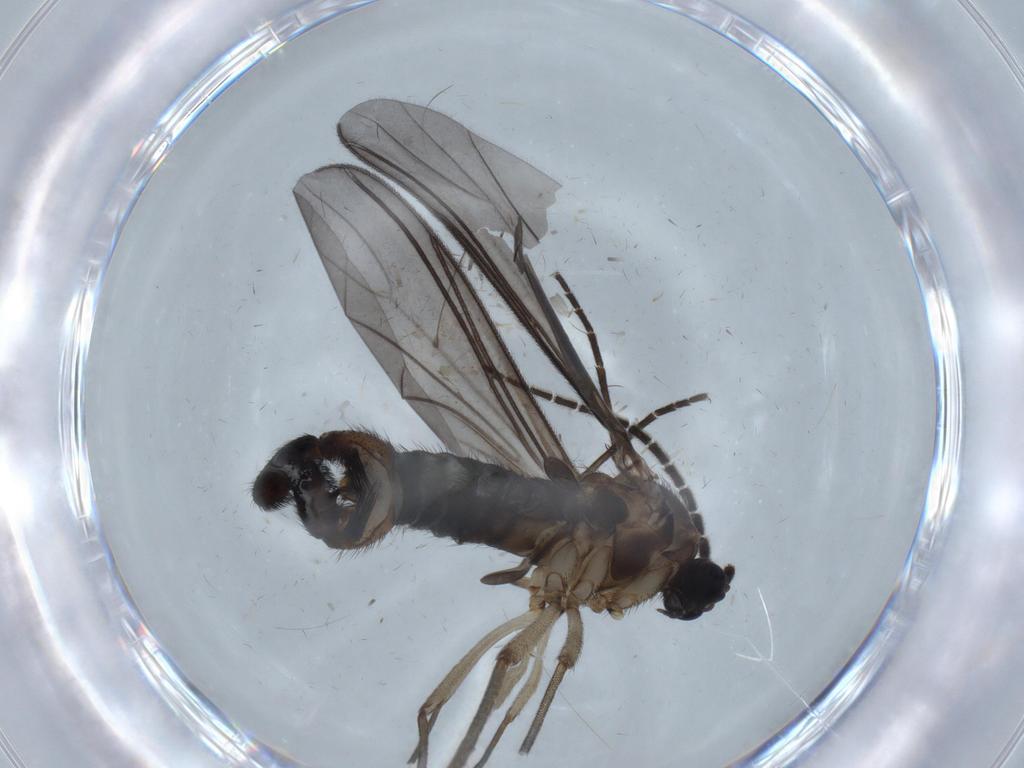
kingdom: Animalia
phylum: Arthropoda
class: Insecta
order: Diptera
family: Sciaridae
